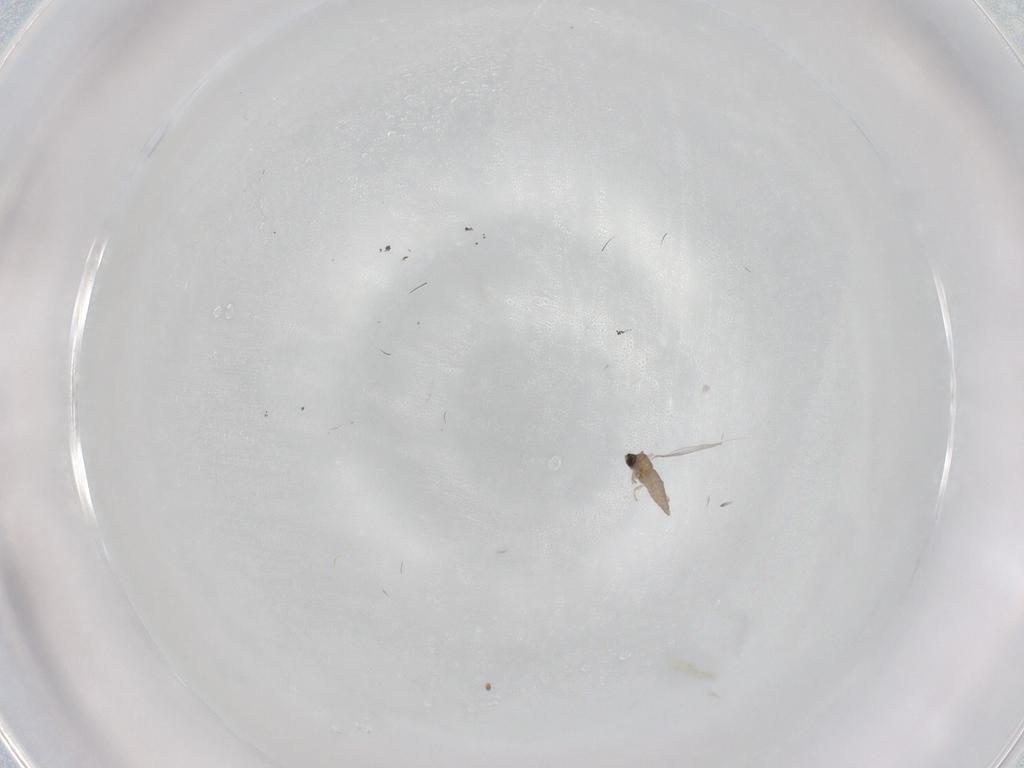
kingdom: Animalia
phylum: Arthropoda
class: Insecta
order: Diptera
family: Cecidomyiidae
